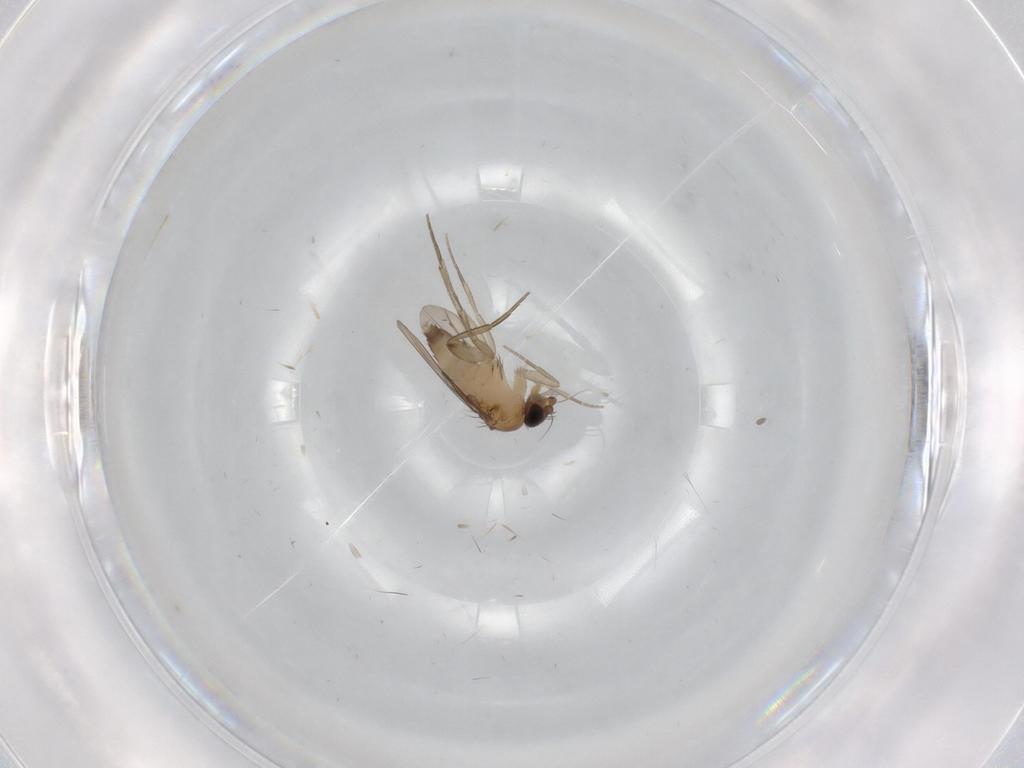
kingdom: Animalia
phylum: Arthropoda
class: Insecta
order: Diptera
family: Phoridae
